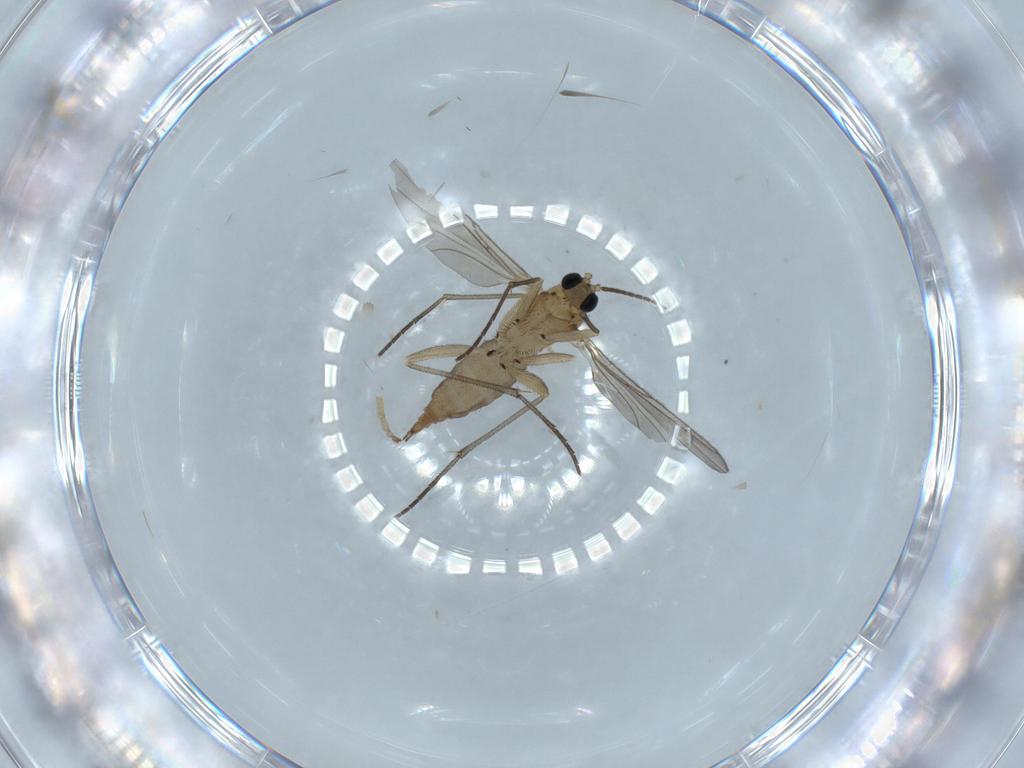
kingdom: Animalia
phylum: Arthropoda
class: Insecta
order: Diptera
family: Sciaridae
